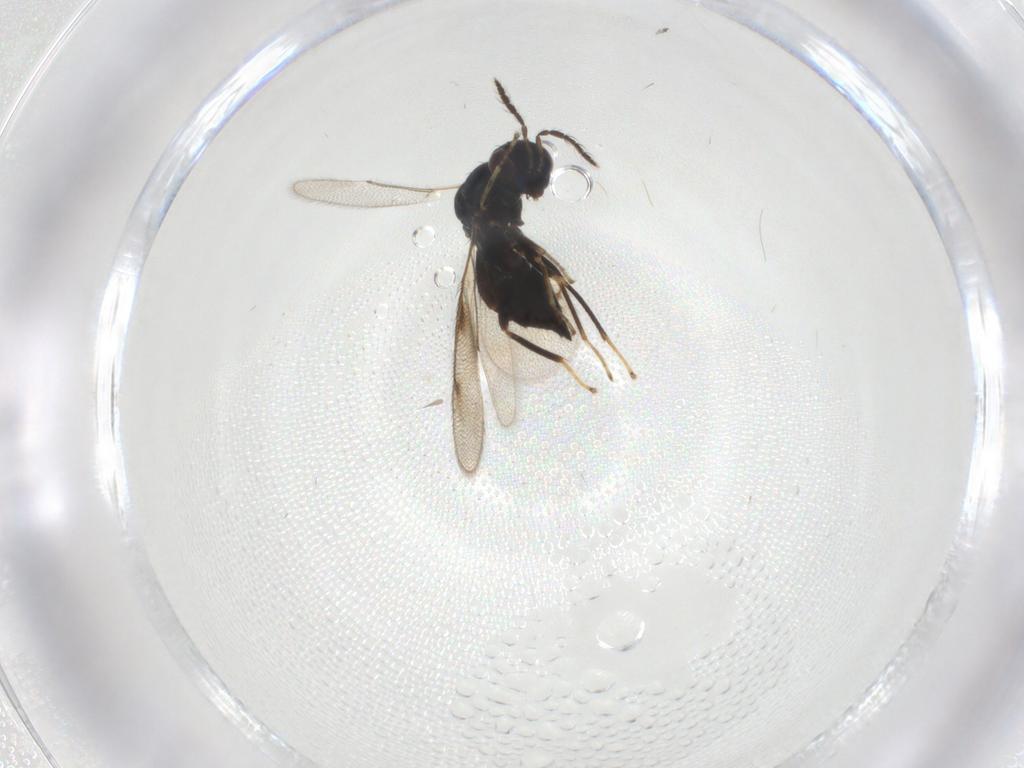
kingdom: Animalia
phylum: Arthropoda
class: Insecta
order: Hymenoptera
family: Eulophidae
